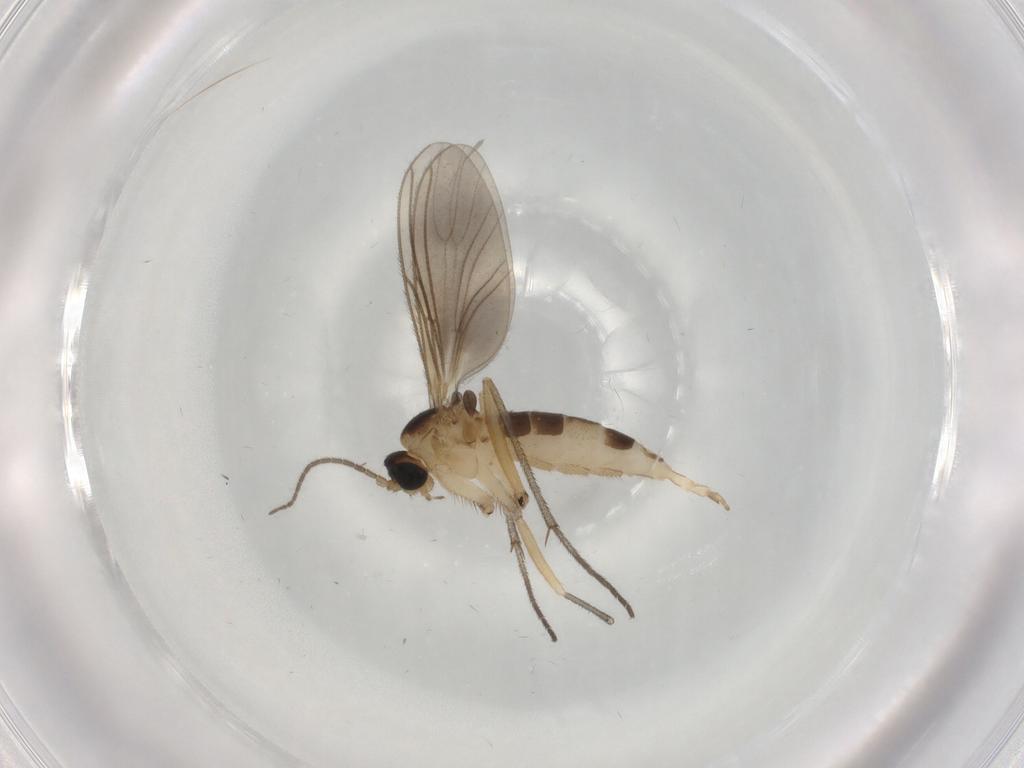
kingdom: Animalia
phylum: Arthropoda
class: Insecta
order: Diptera
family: Sciaridae
